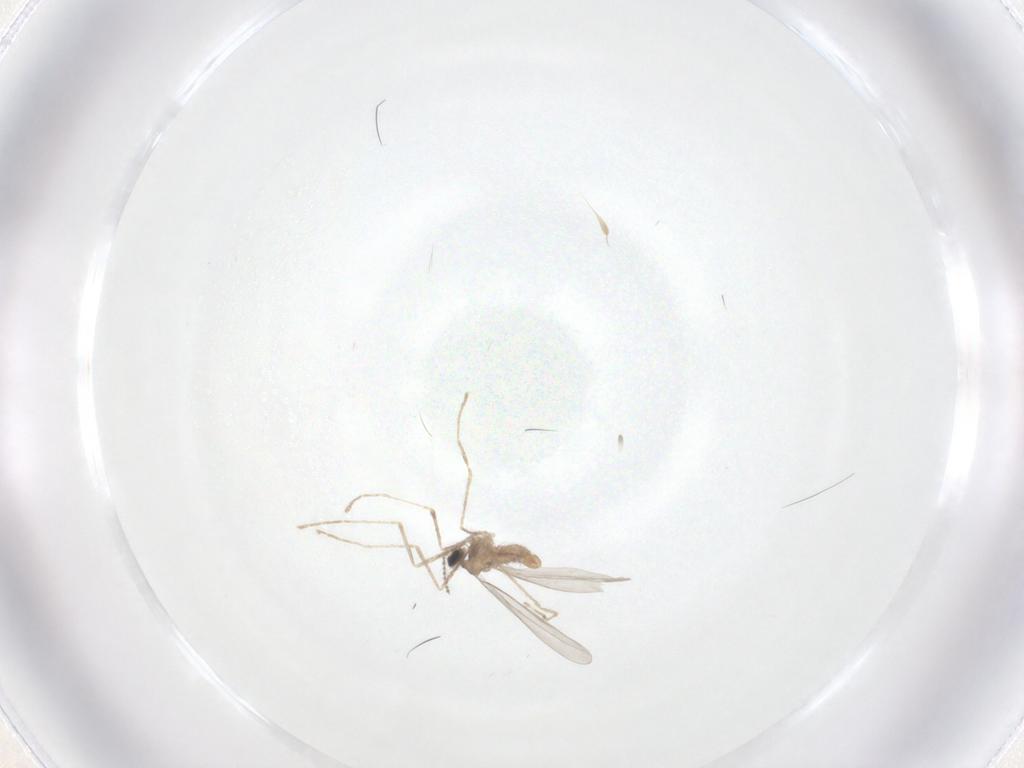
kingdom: Animalia
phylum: Arthropoda
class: Insecta
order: Diptera
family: Cecidomyiidae
